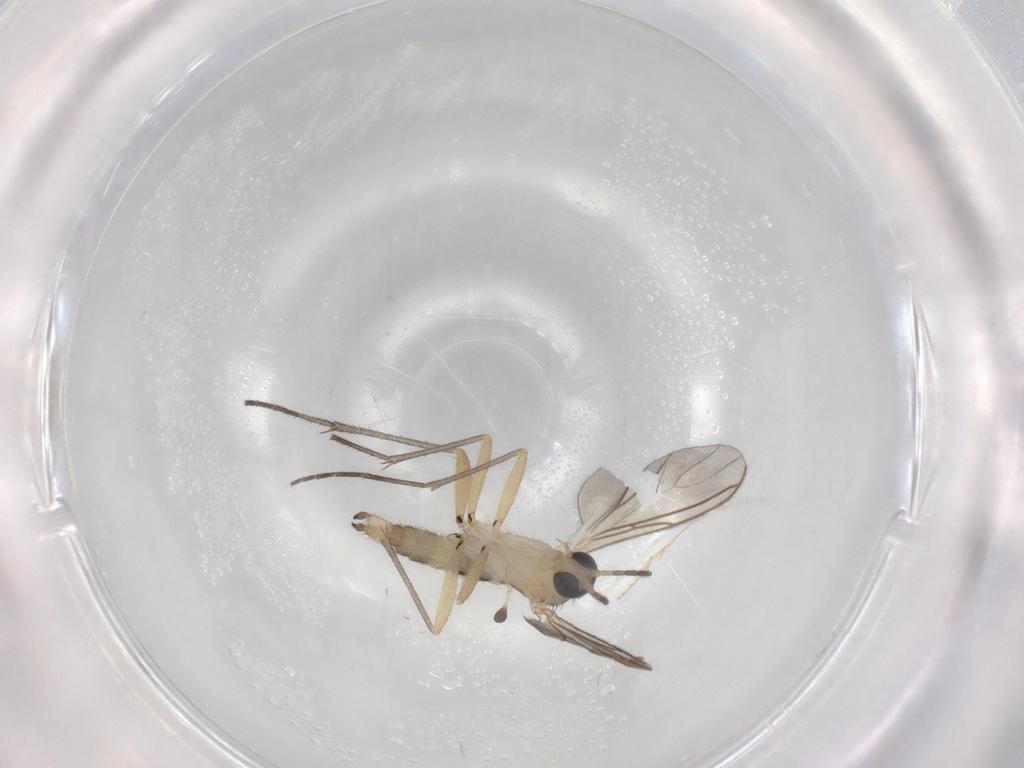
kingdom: Animalia
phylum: Arthropoda
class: Insecta
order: Diptera
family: Sciaridae
